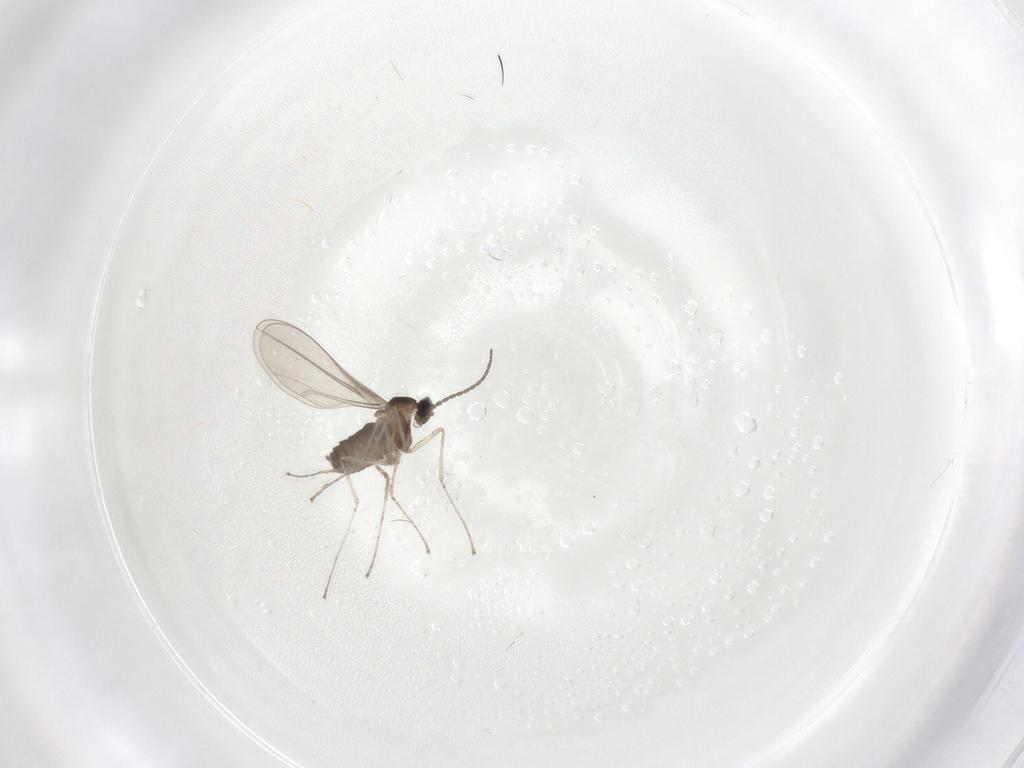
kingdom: Animalia
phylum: Arthropoda
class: Insecta
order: Diptera
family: Cecidomyiidae
